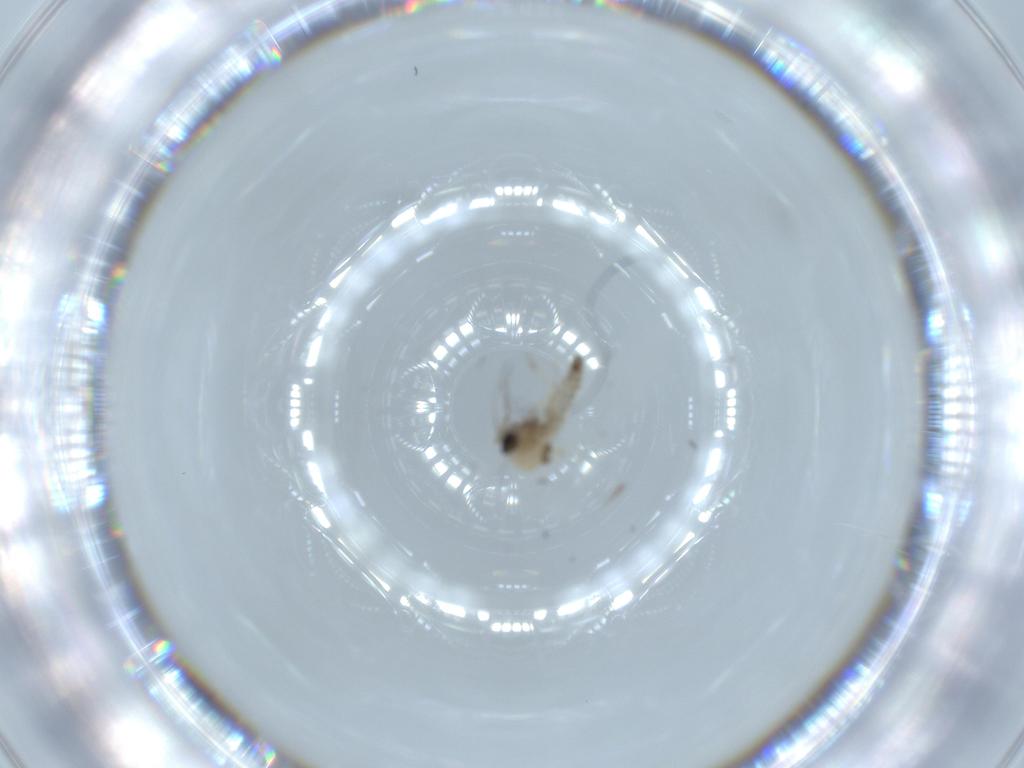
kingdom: Animalia
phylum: Arthropoda
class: Insecta
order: Diptera
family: Ceratopogonidae
